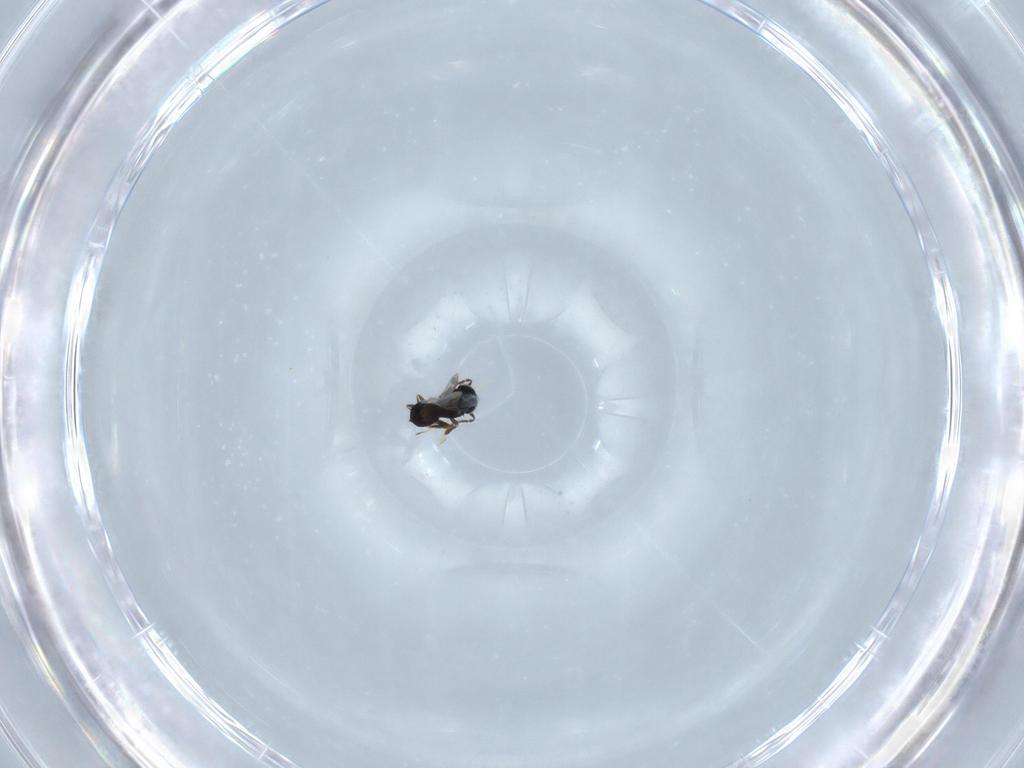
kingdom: Animalia
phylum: Arthropoda
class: Insecta
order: Hymenoptera
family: Scelionidae
